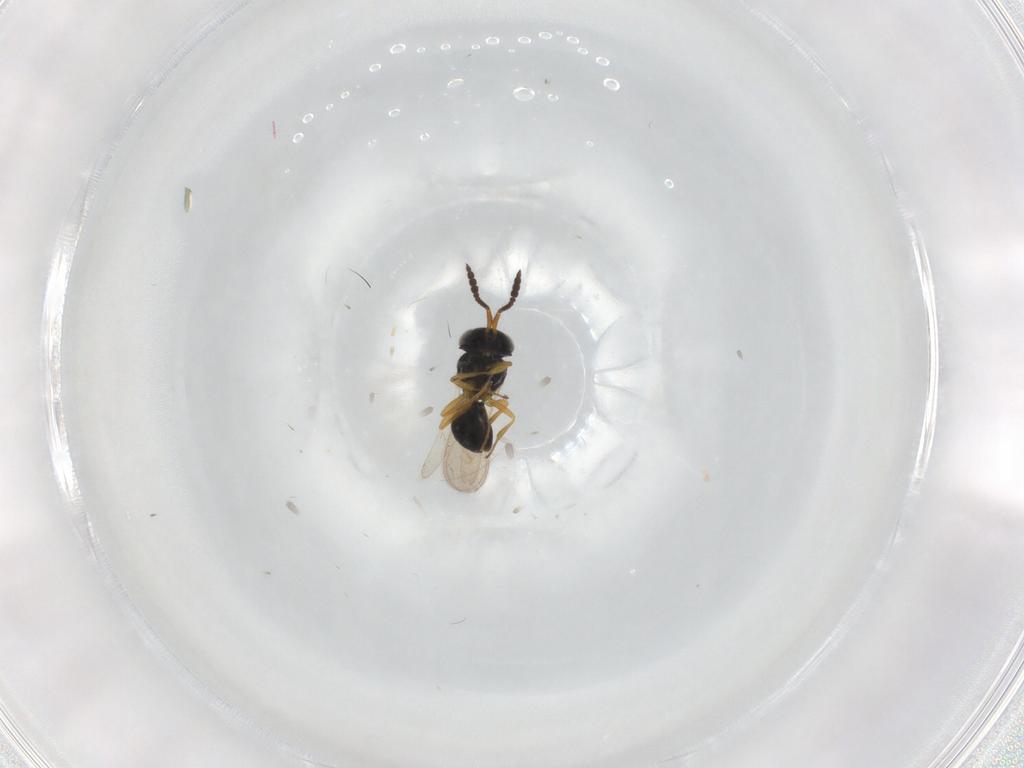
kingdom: Animalia
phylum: Arthropoda
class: Insecta
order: Hymenoptera
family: Scelionidae
